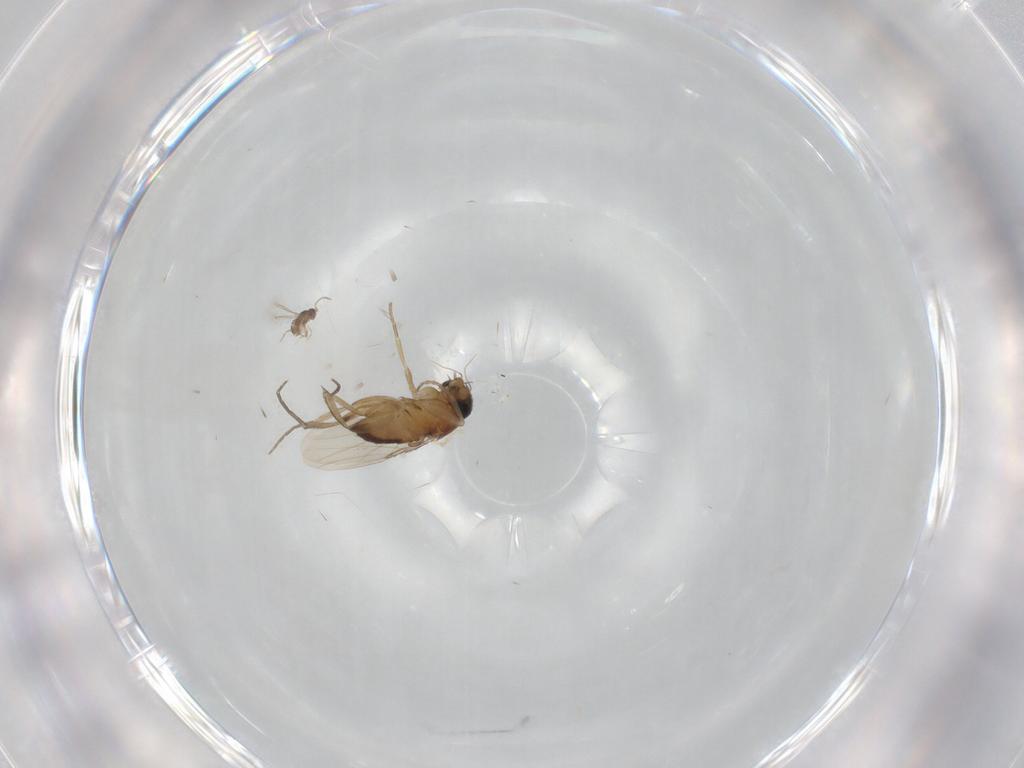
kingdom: Animalia
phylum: Arthropoda
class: Insecta
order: Diptera
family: Phoridae
